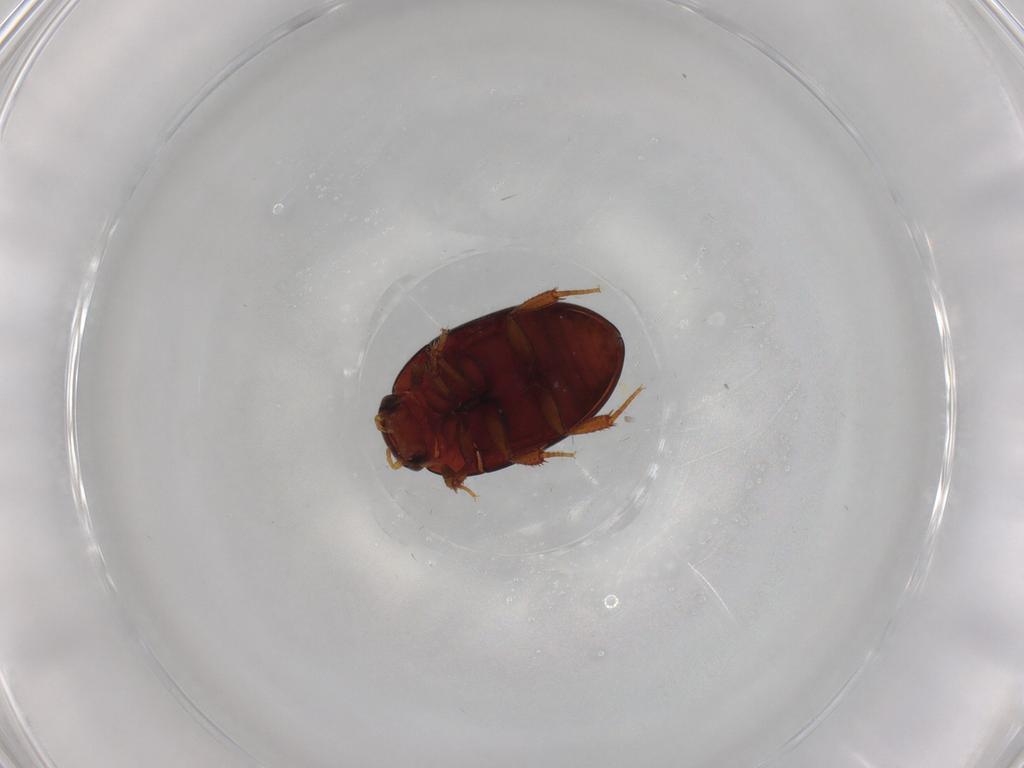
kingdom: Animalia
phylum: Arthropoda
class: Insecta
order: Coleoptera
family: Hydrophilidae
